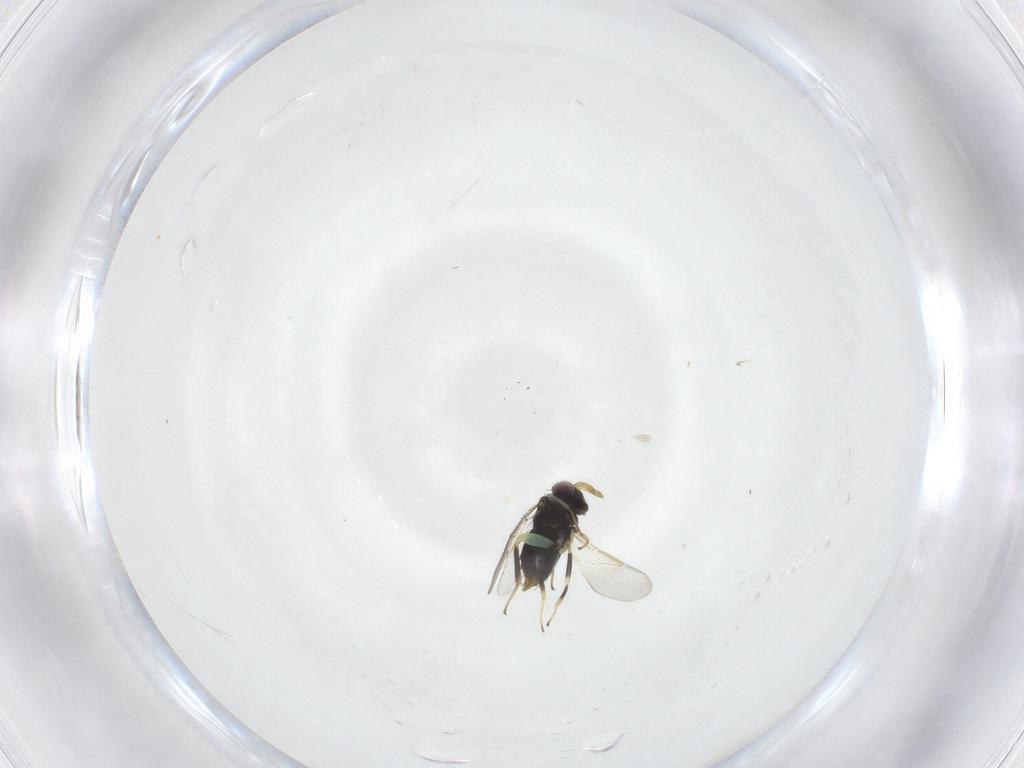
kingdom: Animalia
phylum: Arthropoda
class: Insecta
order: Hymenoptera
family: Aphelinidae
